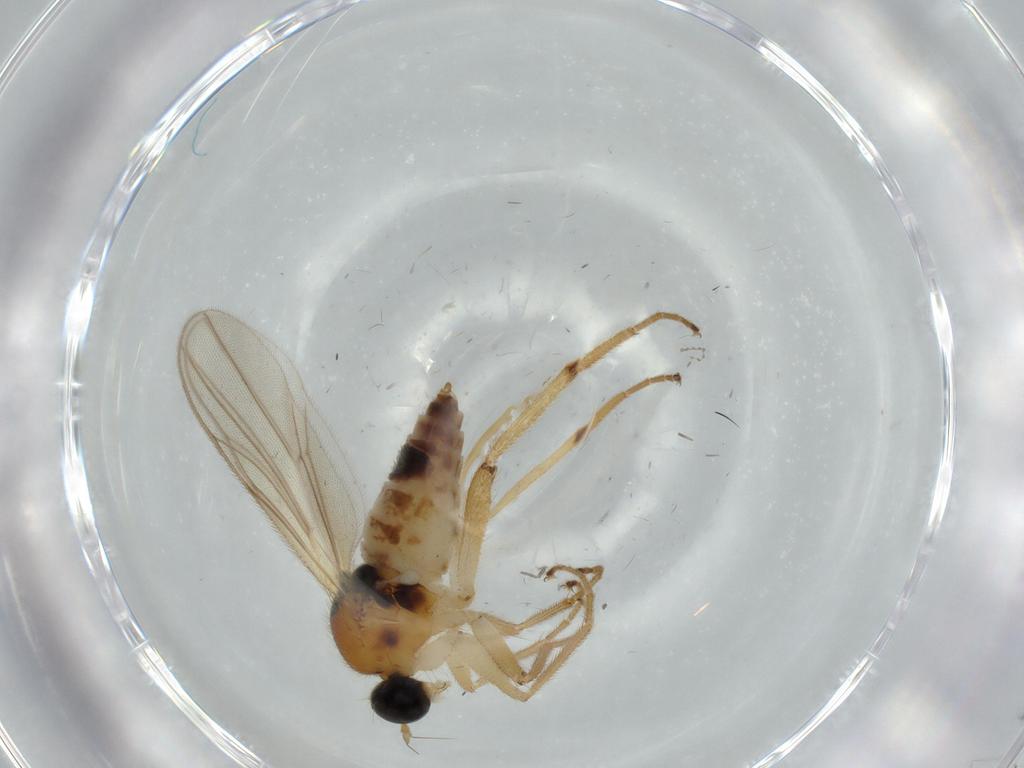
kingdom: Animalia
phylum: Arthropoda
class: Insecta
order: Diptera
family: Hybotidae
